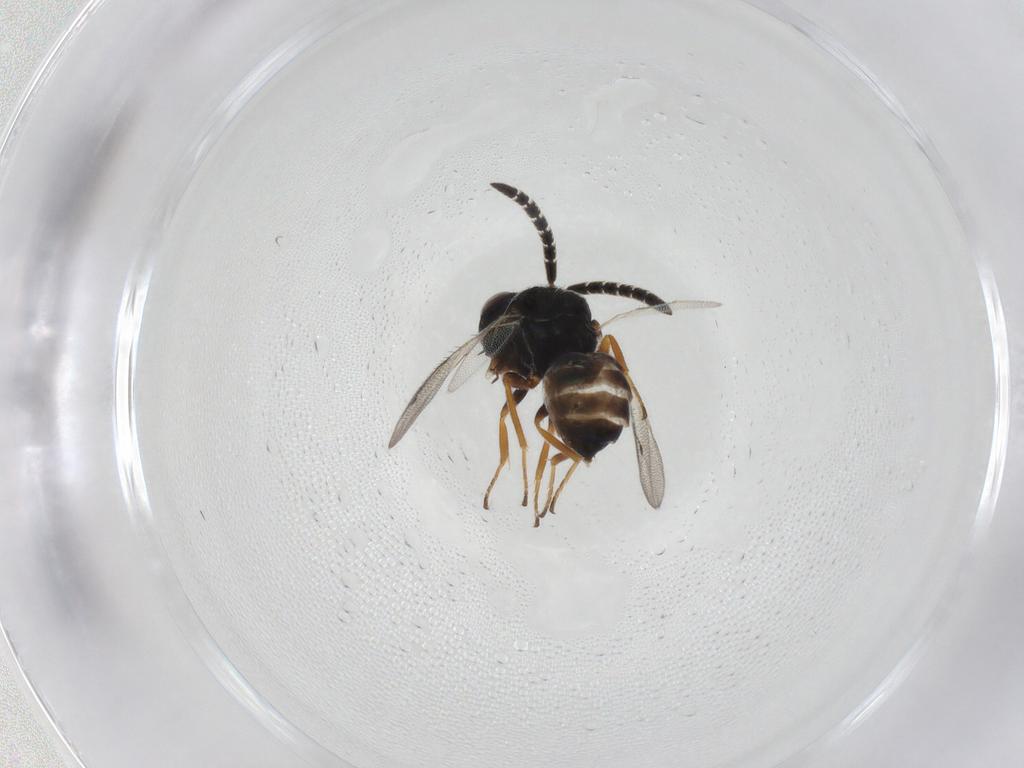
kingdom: Animalia
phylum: Arthropoda
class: Insecta
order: Hymenoptera
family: Pteromalidae
